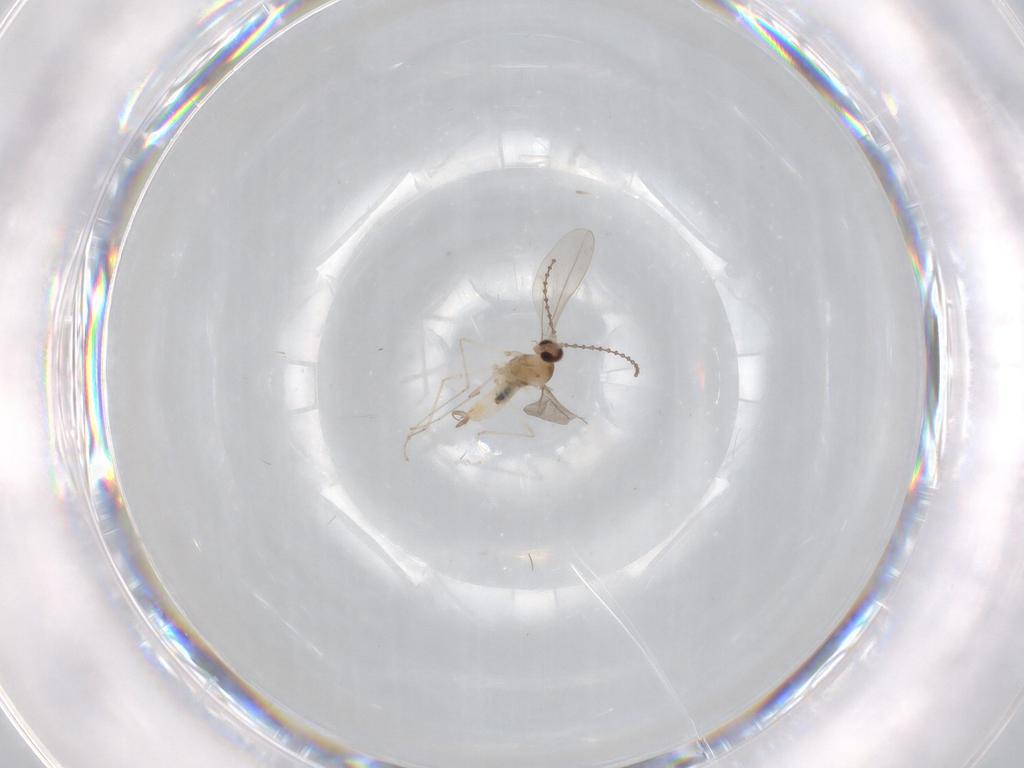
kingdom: Animalia
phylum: Arthropoda
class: Insecta
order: Diptera
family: Cecidomyiidae
